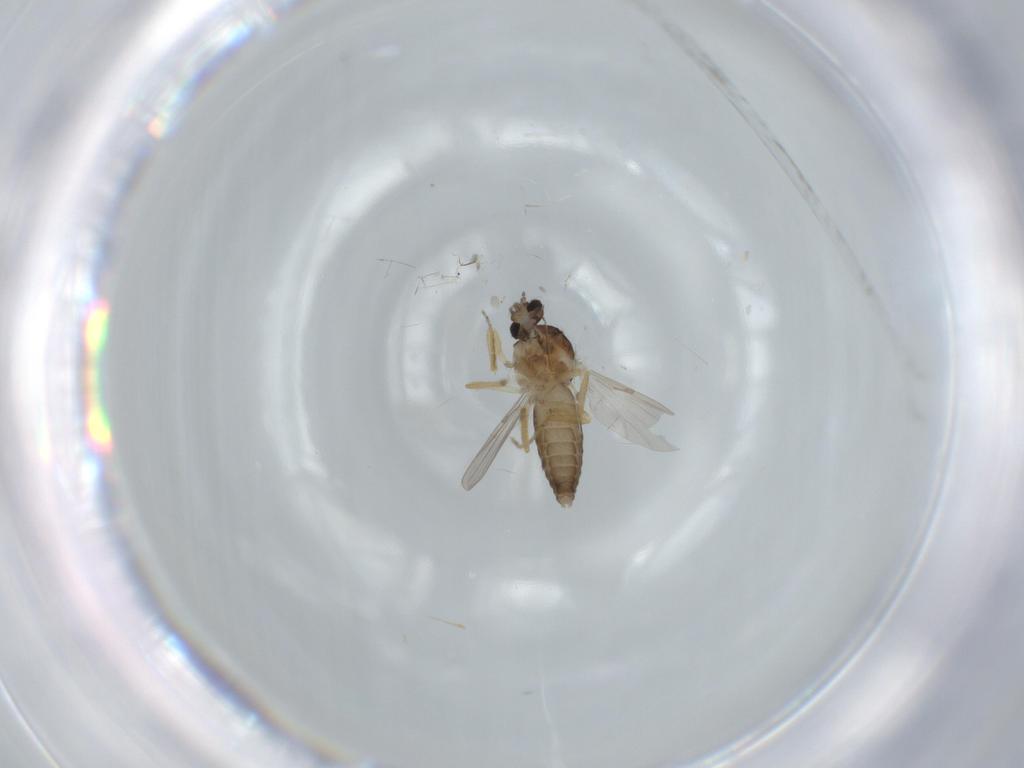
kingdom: Animalia
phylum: Arthropoda
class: Insecta
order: Diptera
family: Ceratopogonidae
